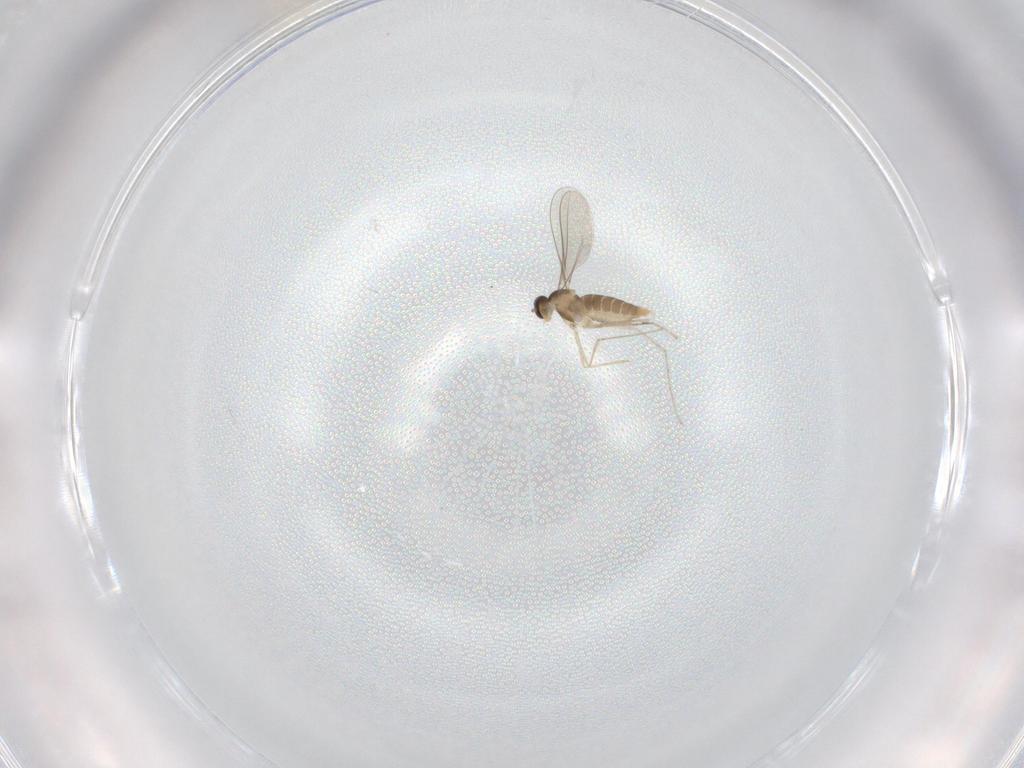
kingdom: Animalia
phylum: Arthropoda
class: Insecta
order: Diptera
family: Cecidomyiidae
